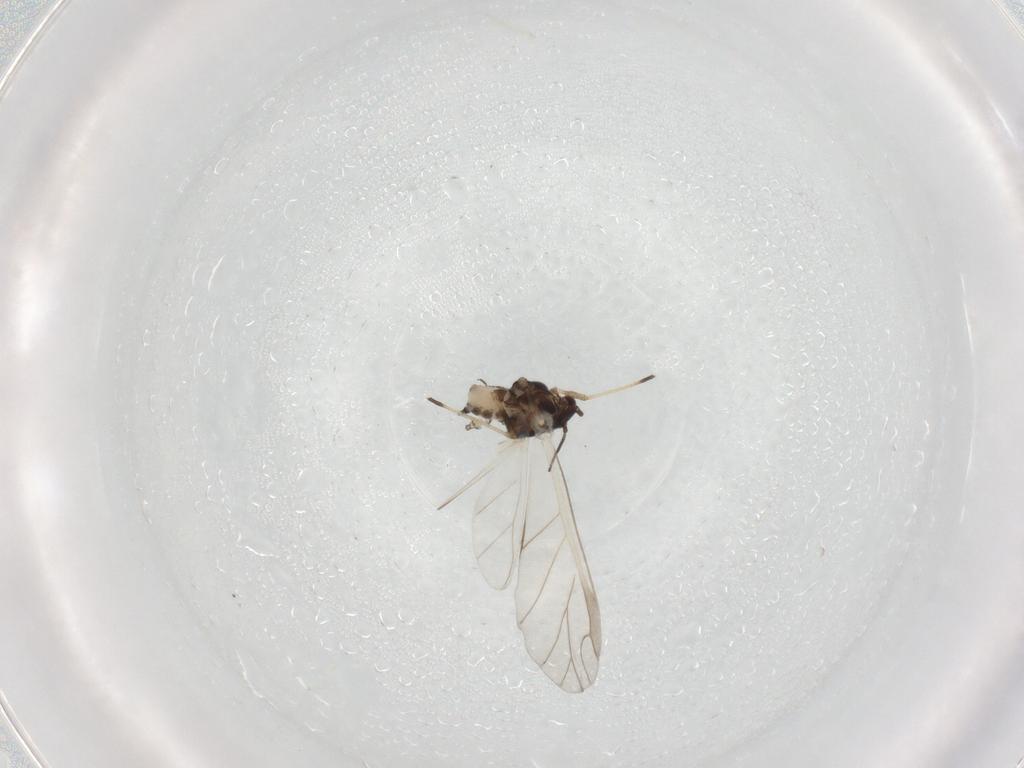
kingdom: Animalia
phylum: Arthropoda
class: Insecta
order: Hemiptera
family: Aphididae
